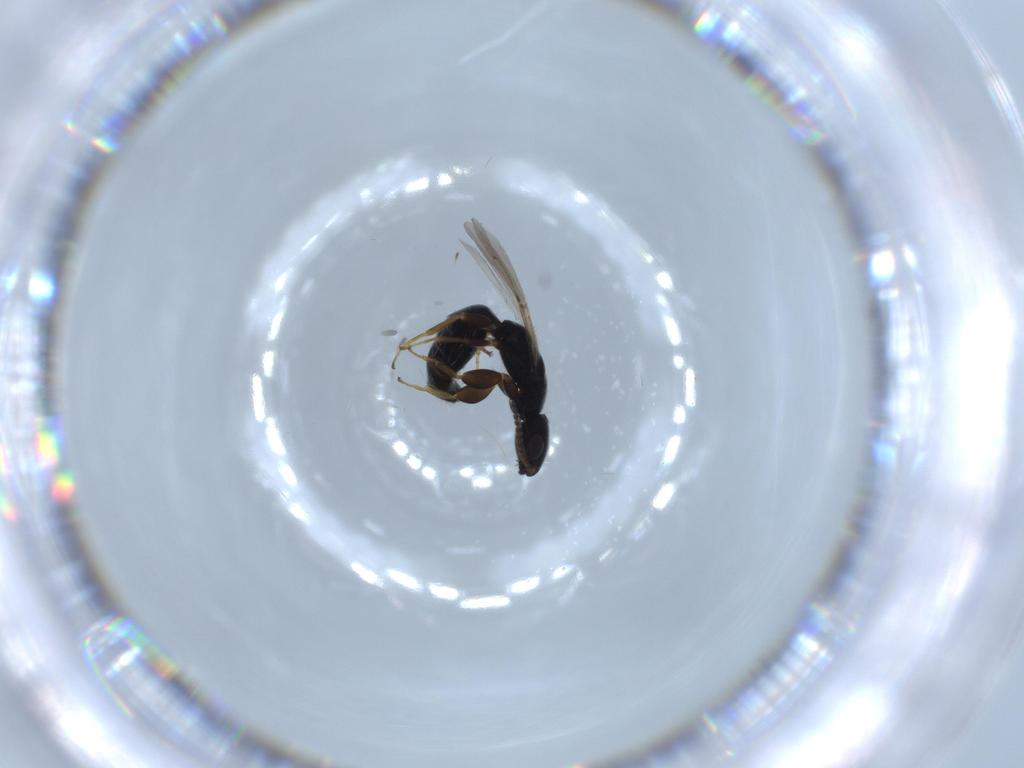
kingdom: Animalia
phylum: Arthropoda
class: Insecta
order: Hymenoptera
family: Bethylidae
